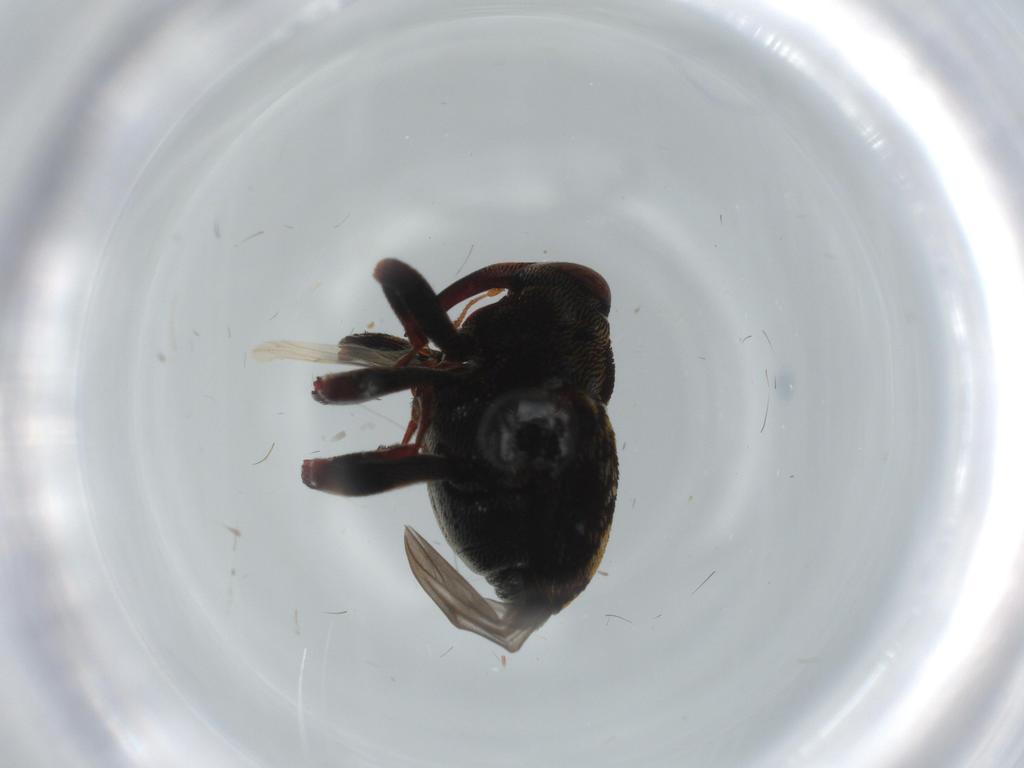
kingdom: Animalia
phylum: Arthropoda
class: Insecta
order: Coleoptera
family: Curculionidae
